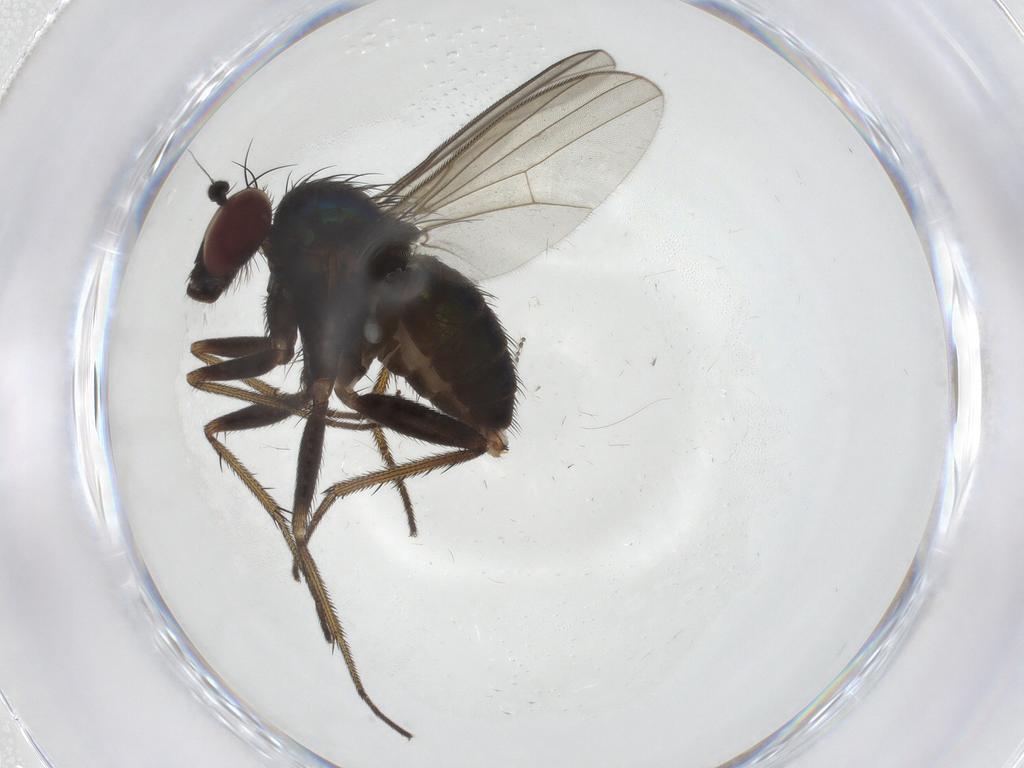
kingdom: Animalia
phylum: Arthropoda
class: Insecta
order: Diptera
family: Dolichopodidae
